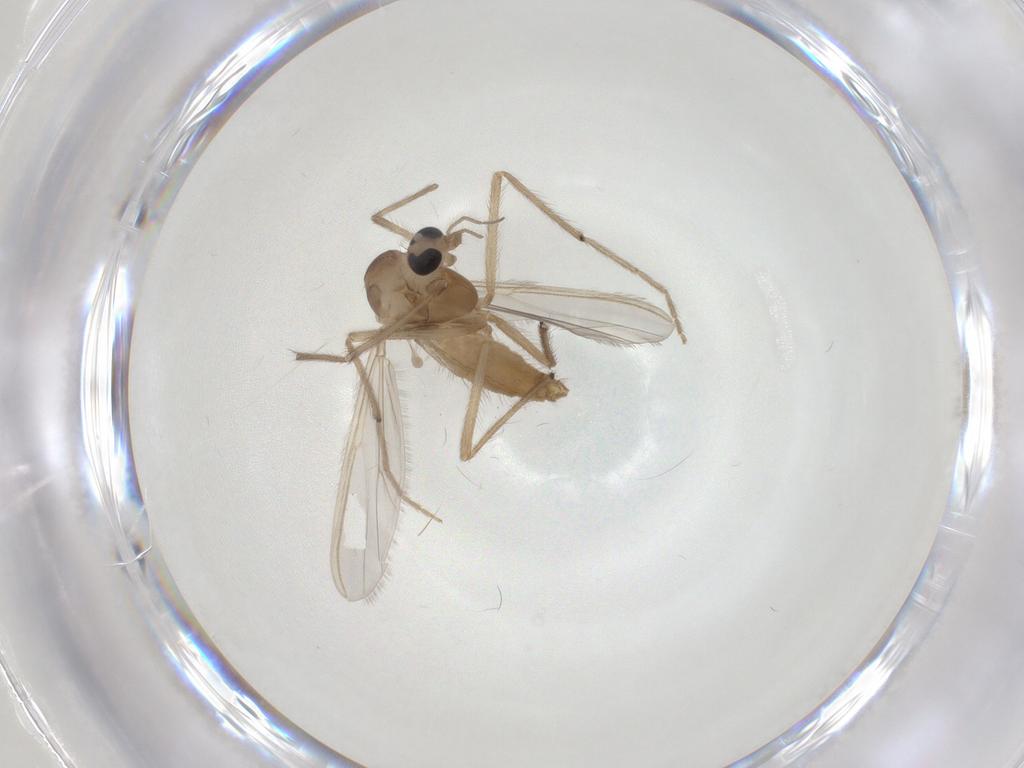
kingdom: Animalia
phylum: Arthropoda
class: Insecta
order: Diptera
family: Chironomidae
